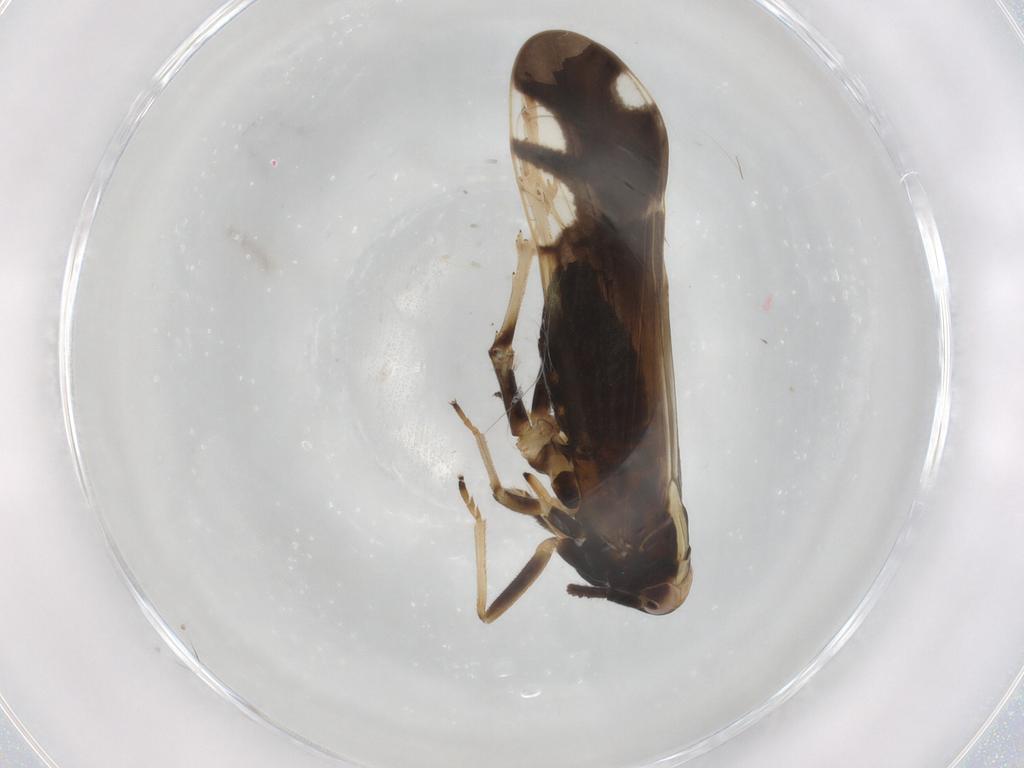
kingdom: Animalia
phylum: Arthropoda
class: Insecta
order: Hemiptera
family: Delphacidae
